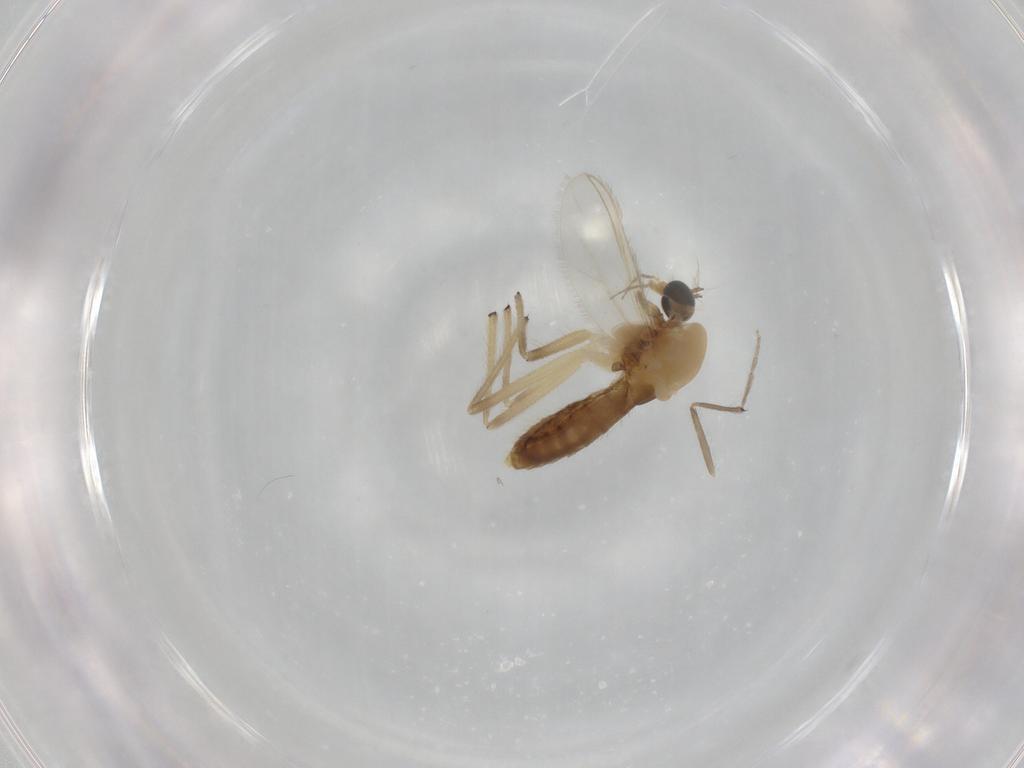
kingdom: Animalia
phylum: Arthropoda
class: Insecta
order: Diptera
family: Chironomidae
